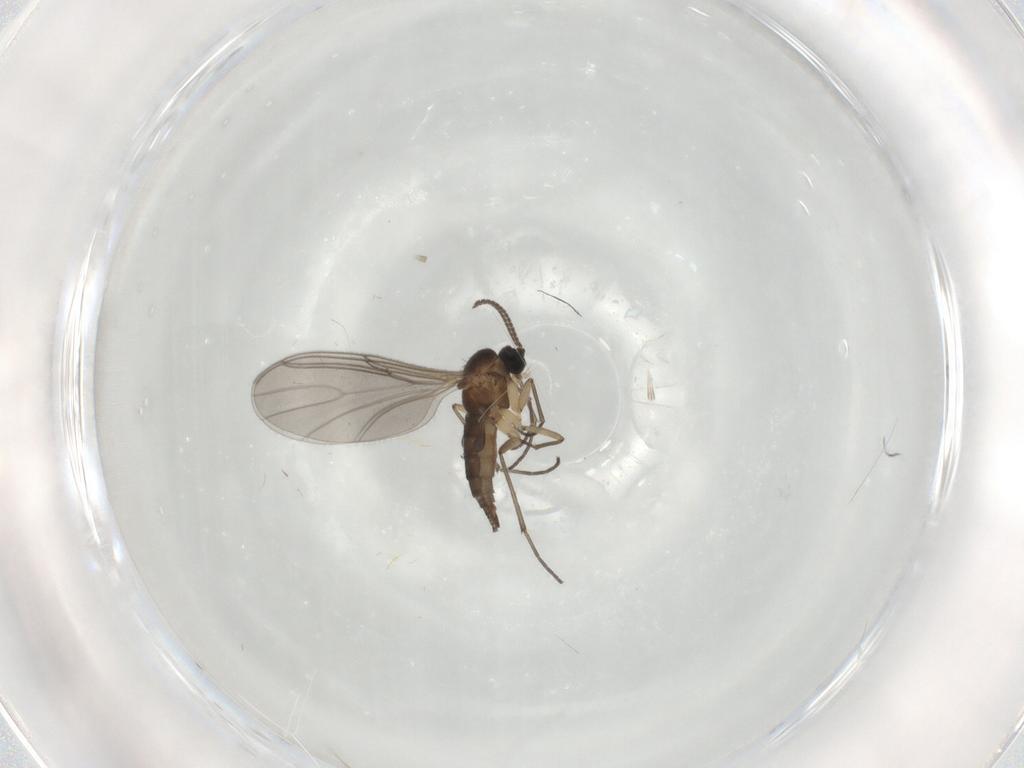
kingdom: Animalia
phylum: Arthropoda
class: Insecta
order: Diptera
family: Sciaridae
